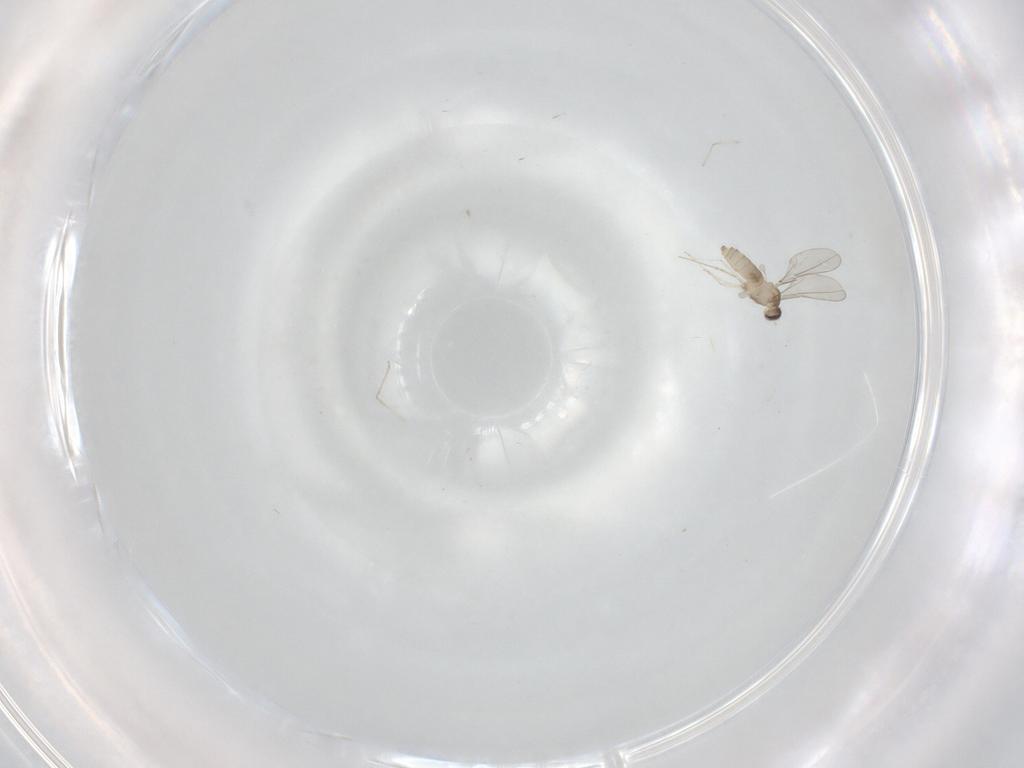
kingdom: Animalia
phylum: Arthropoda
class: Insecta
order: Diptera
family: Cecidomyiidae
